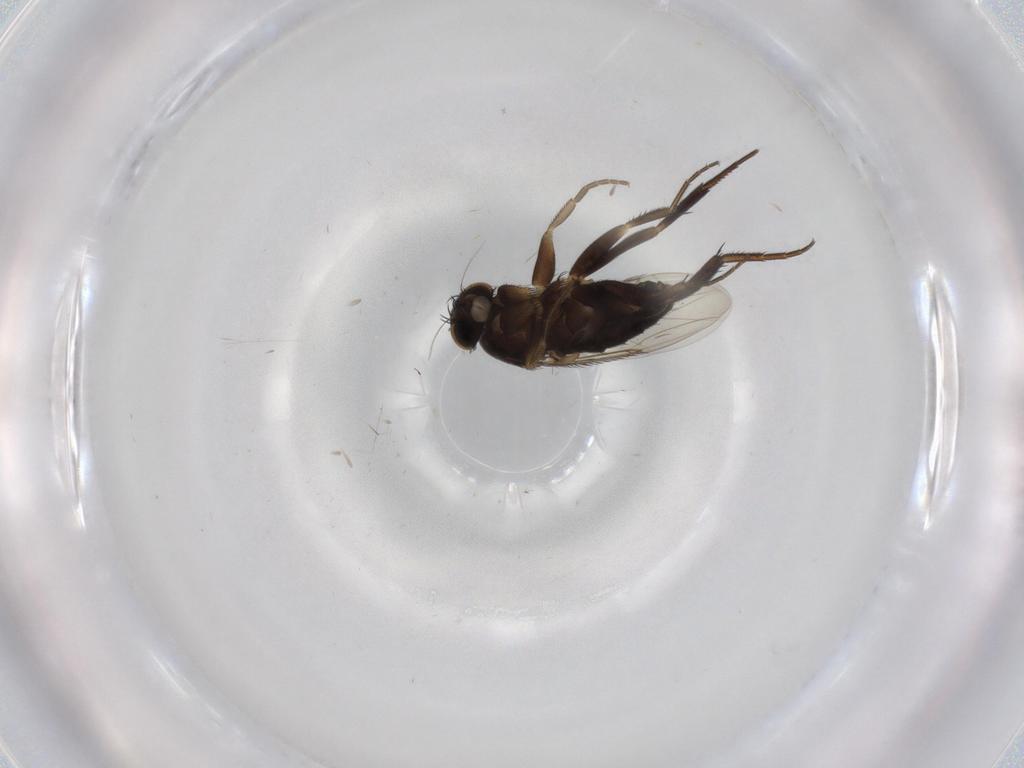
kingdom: Animalia
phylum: Arthropoda
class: Insecta
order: Diptera
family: Phoridae
